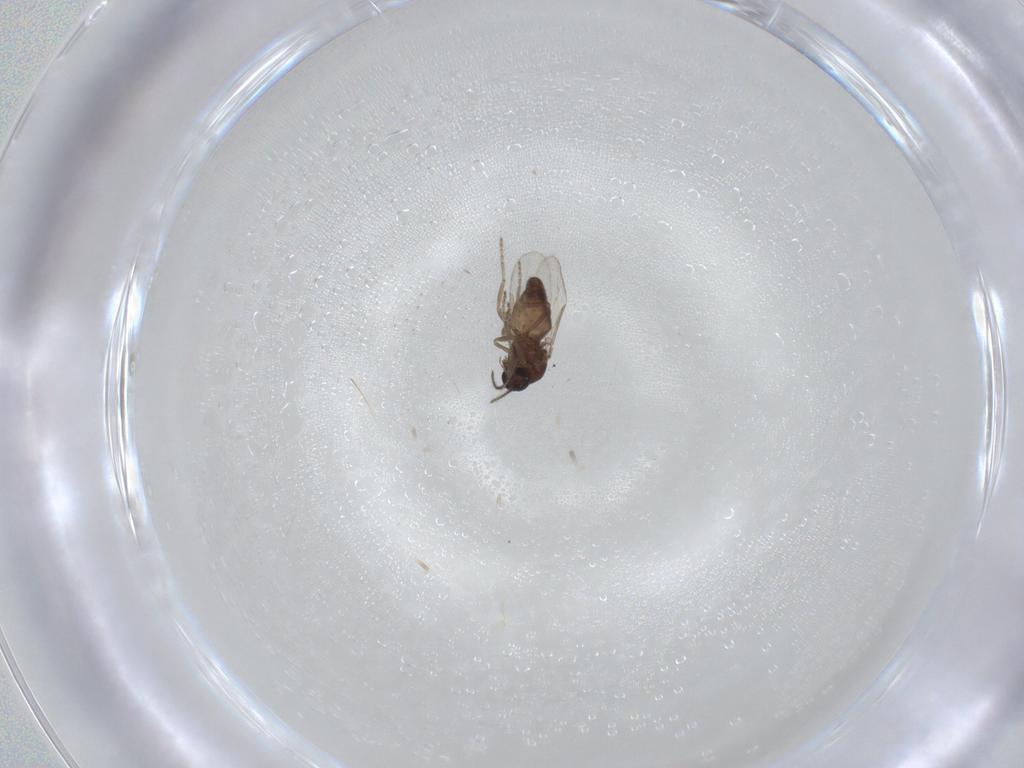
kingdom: Animalia
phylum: Arthropoda
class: Insecta
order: Diptera
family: Ceratopogonidae
